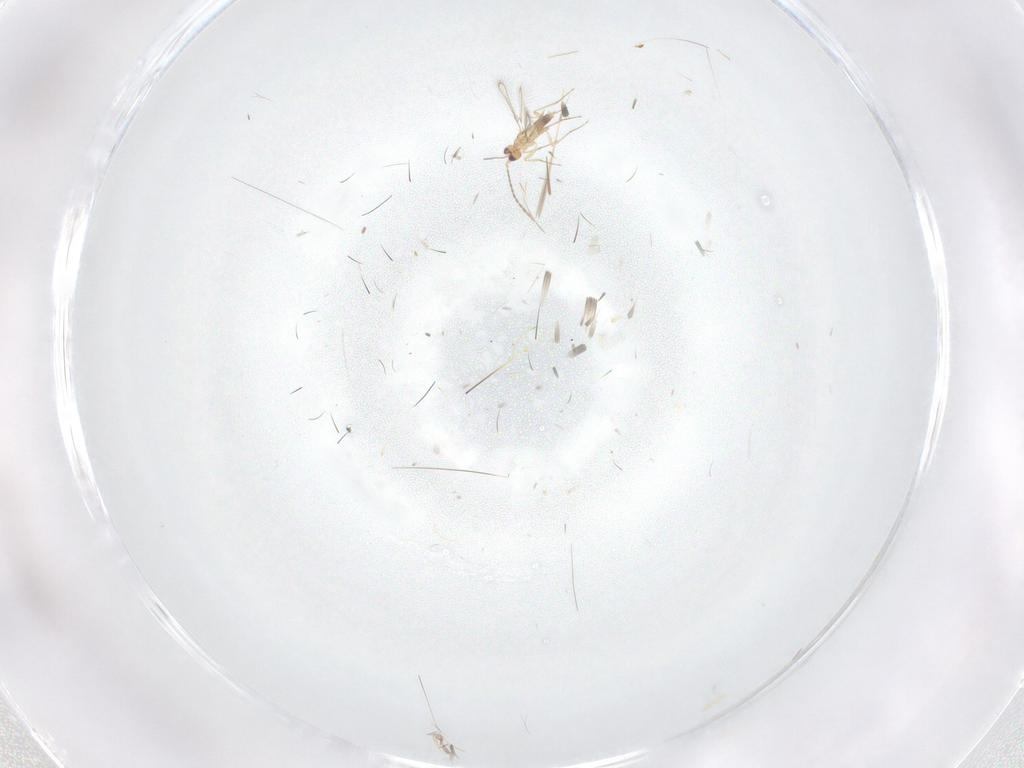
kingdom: Animalia
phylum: Arthropoda
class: Insecta
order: Hymenoptera
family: Mymaridae
